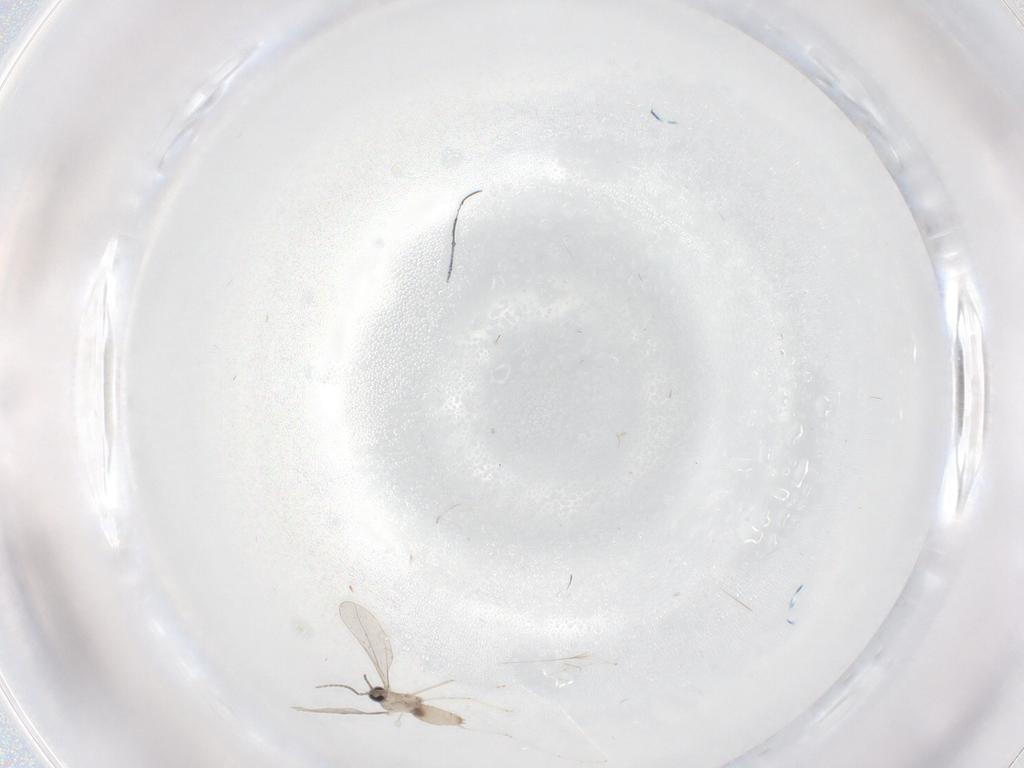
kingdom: Animalia
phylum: Arthropoda
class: Insecta
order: Diptera
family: Cecidomyiidae
